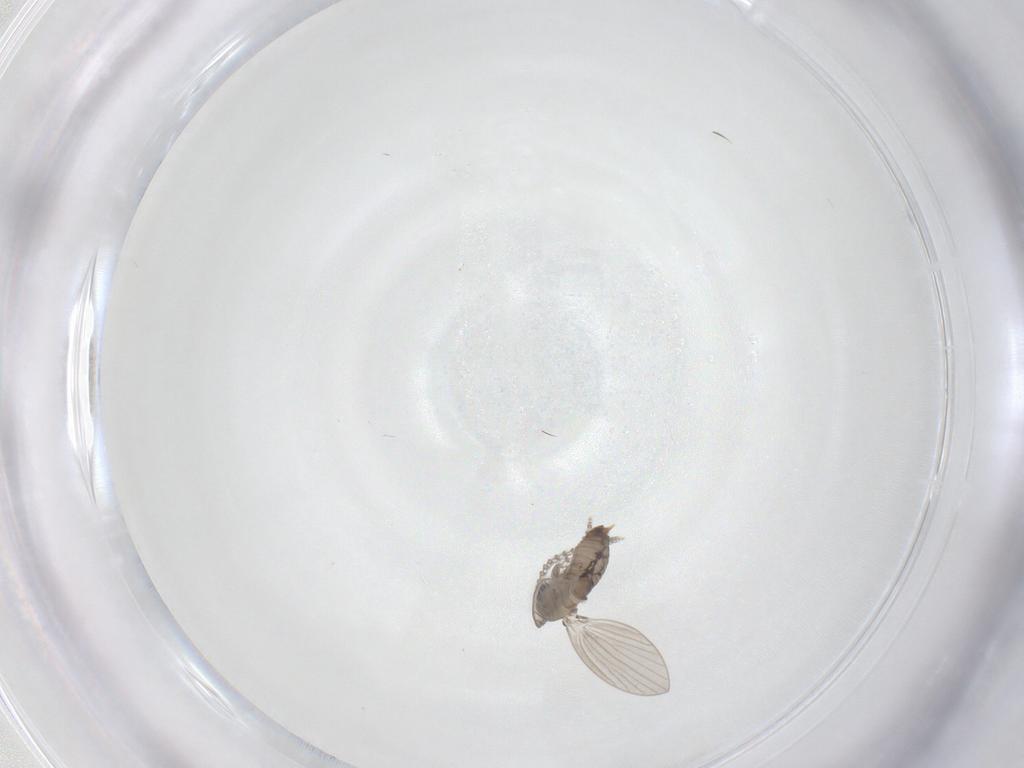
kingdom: Animalia
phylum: Arthropoda
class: Insecta
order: Diptera
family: Psychodidae
